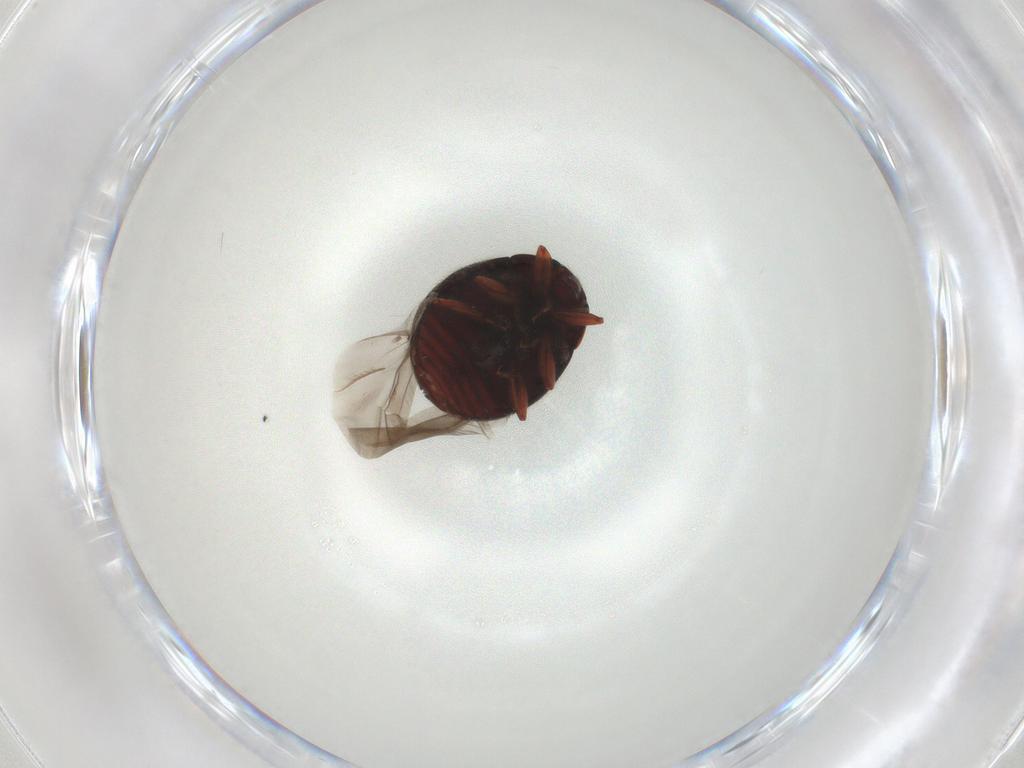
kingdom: Animalia
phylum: Arthropoda
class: Insecta
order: Coleoptera
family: Sphindidae
